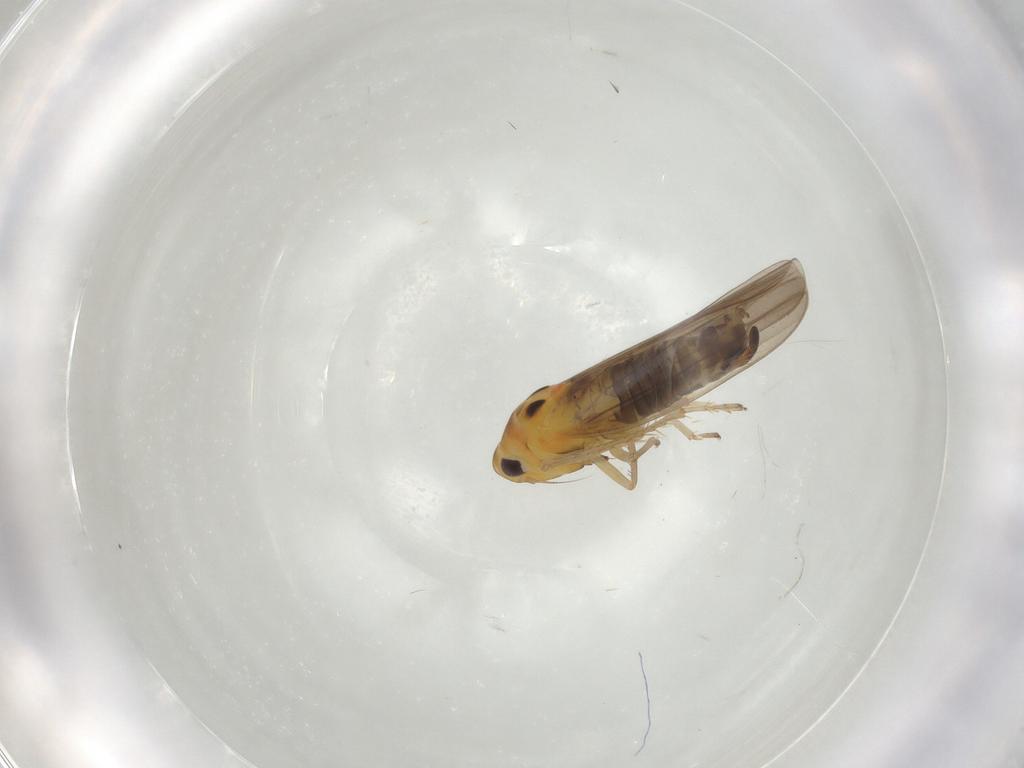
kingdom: Animalia
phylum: Arthropoda
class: Insecta
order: Hemiptera
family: Cicadellidae
